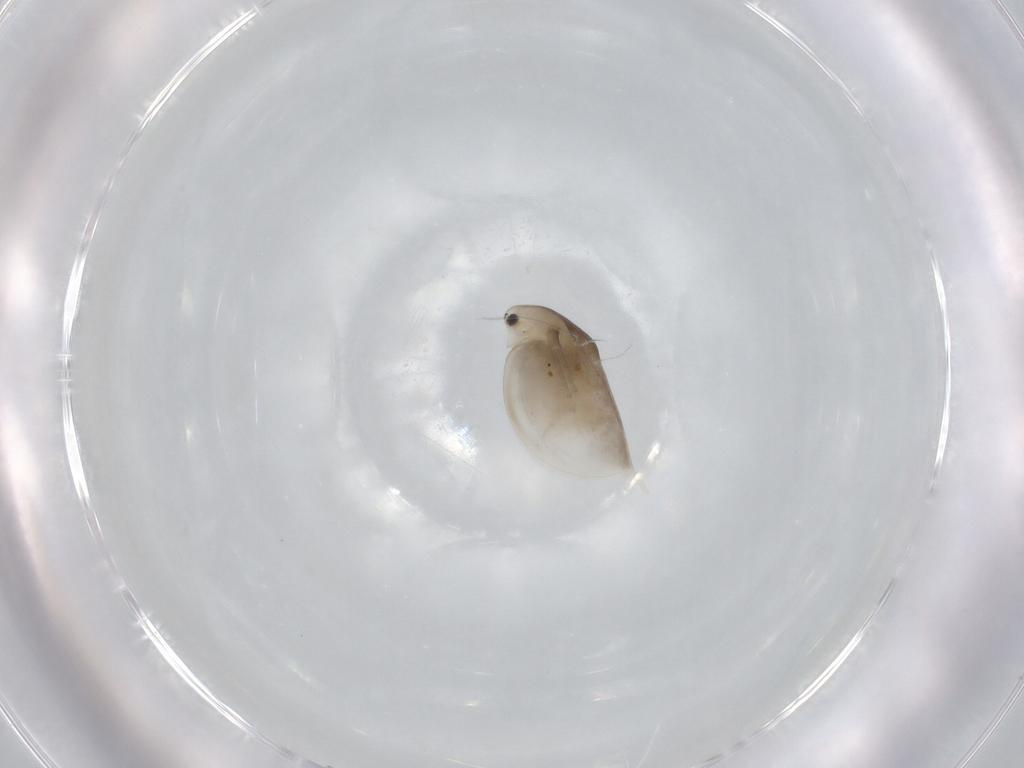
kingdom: Animalia
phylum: Arthropoda
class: Branchiopoda
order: Diplostraca
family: Daphniidae
